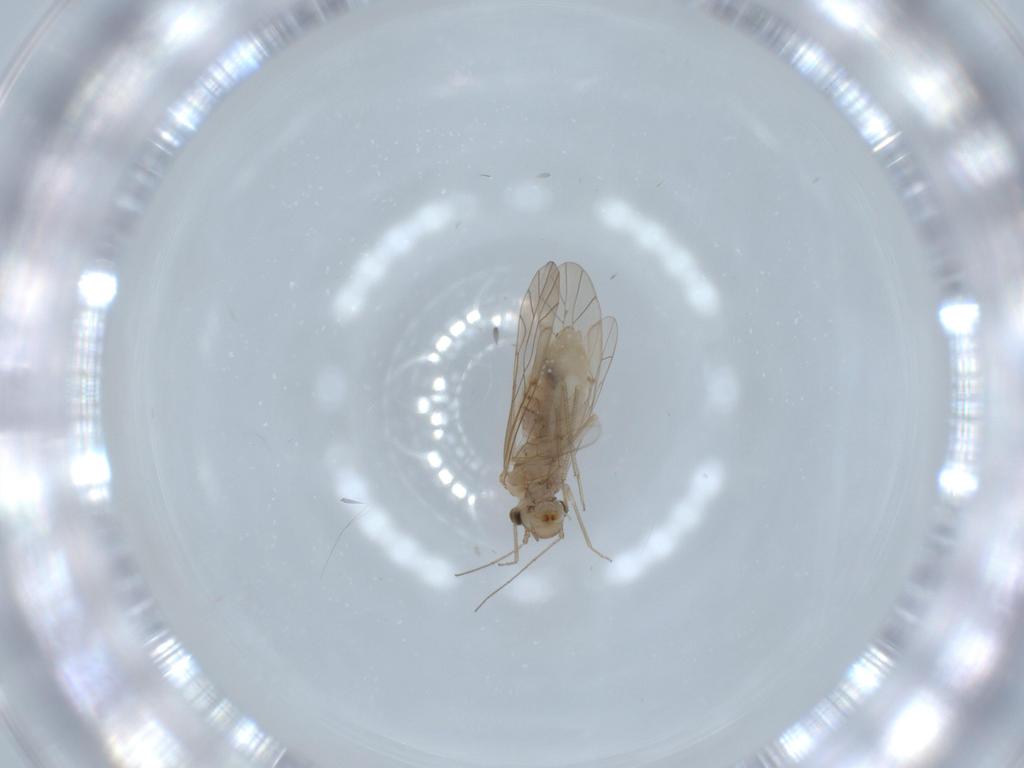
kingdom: Animalia
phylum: Arthropoda
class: Insecta
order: Psocodea
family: Lachesillidae
